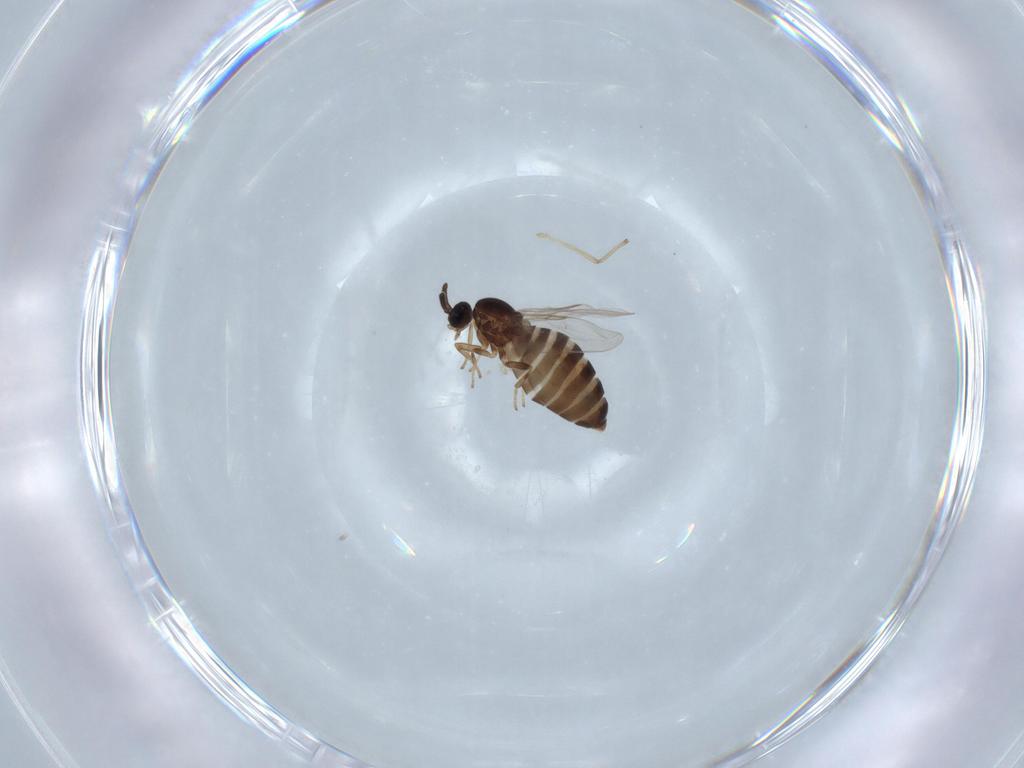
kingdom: Animalia
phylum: Arthropoda
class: Insecta
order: Diptera
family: Scatopsidae
